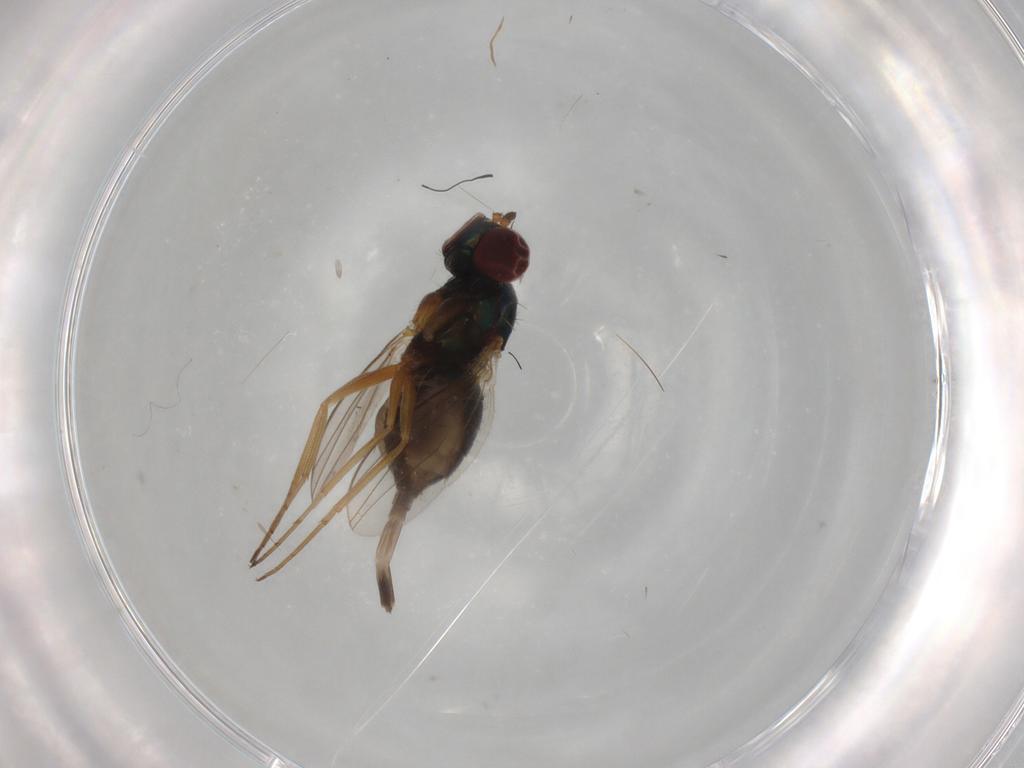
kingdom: Animalia
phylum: Arthropoda
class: Insecta
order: Diptera
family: Dolichopodidae
